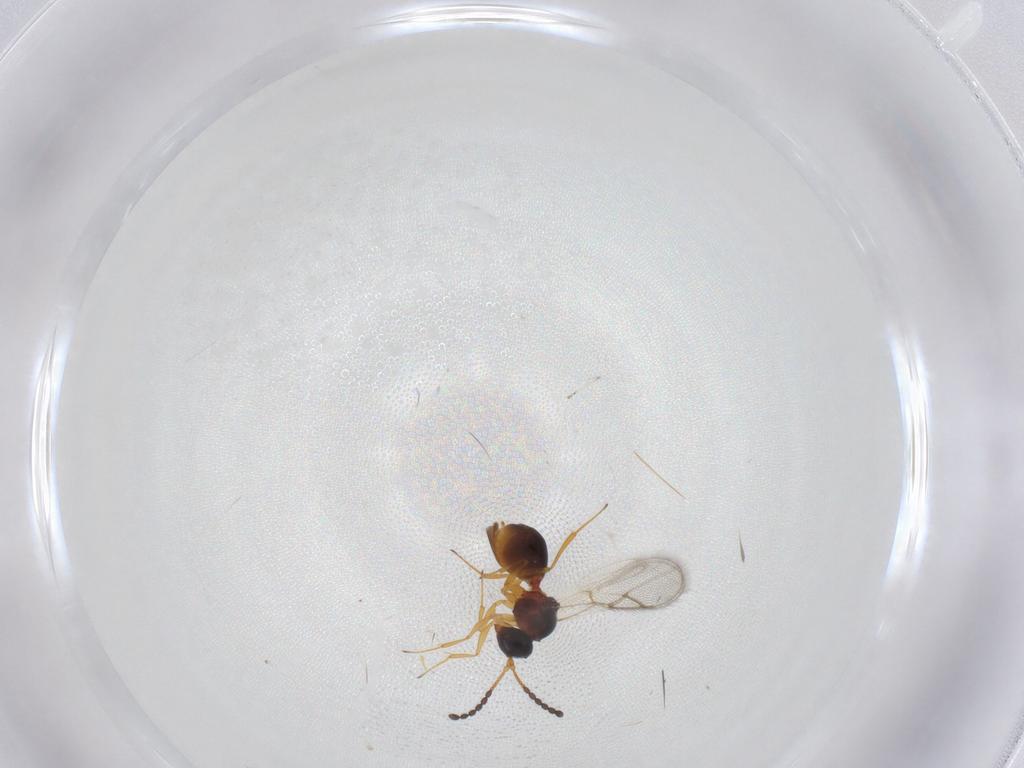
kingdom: Animalia
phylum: Arthropoda
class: Insecta
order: Hymenoptera
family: Figitidae
